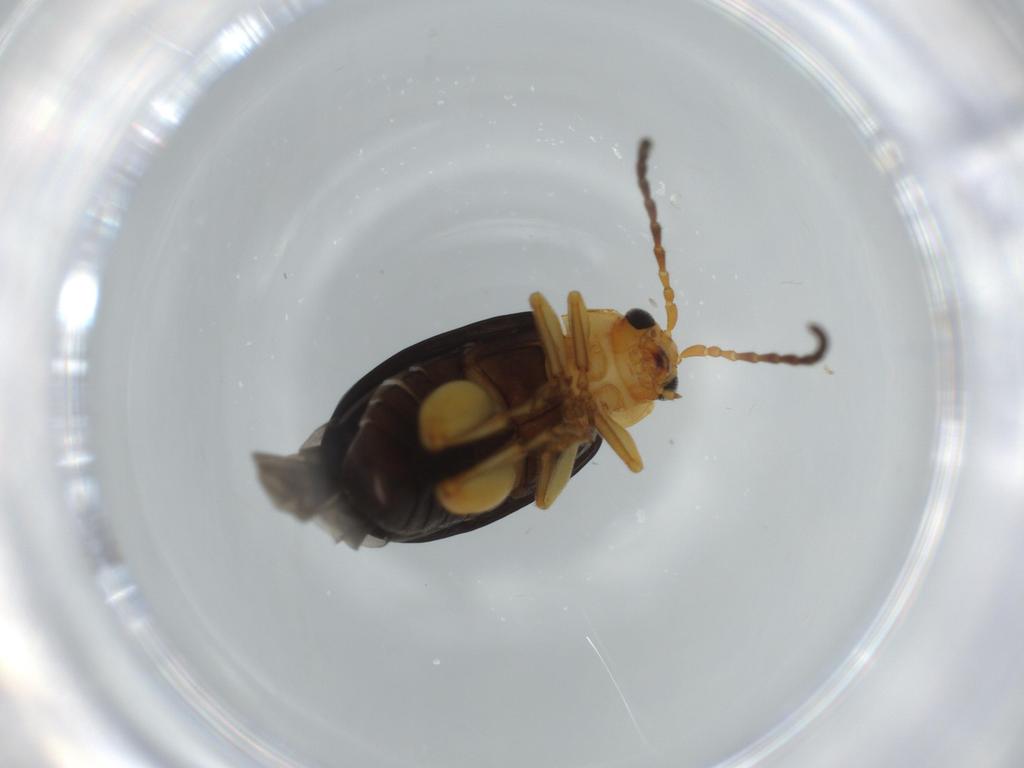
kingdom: Animalia
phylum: Arthropoda
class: Insecta
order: Coleoptera
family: Chrysomelidae
